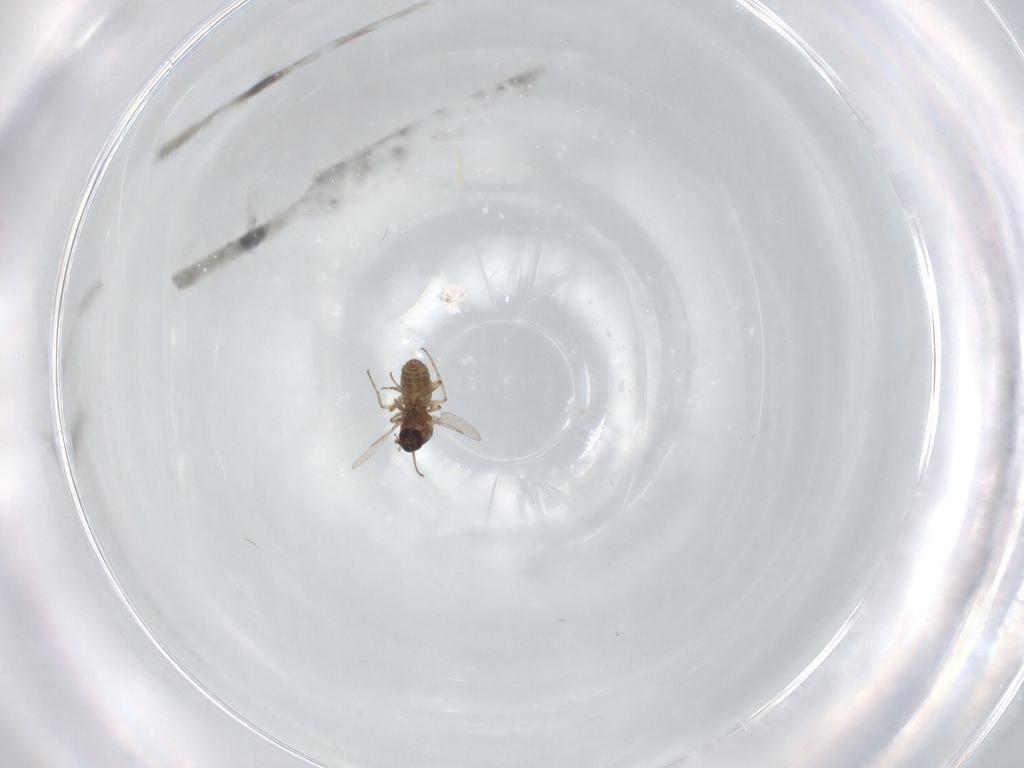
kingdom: Animalia
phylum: Arthropoda
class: Insecta
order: Diptera
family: Ceratopogonidae
